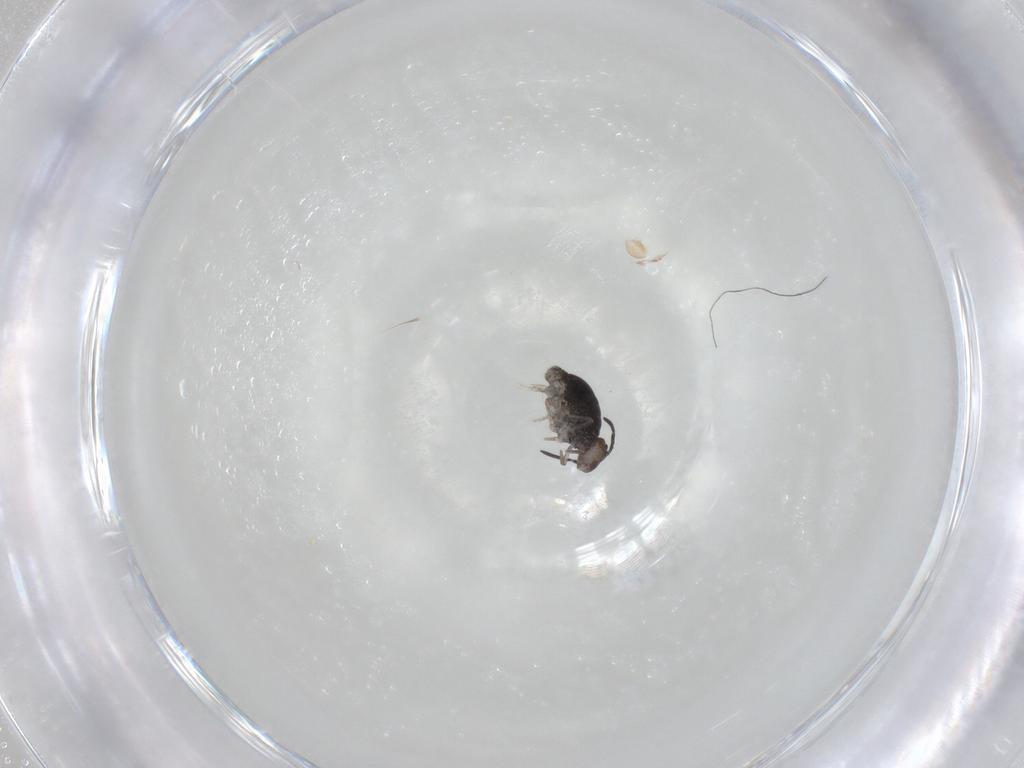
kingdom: Animalia
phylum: Arthropoda
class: Collembola
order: Symphypleona
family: Katiannidae
